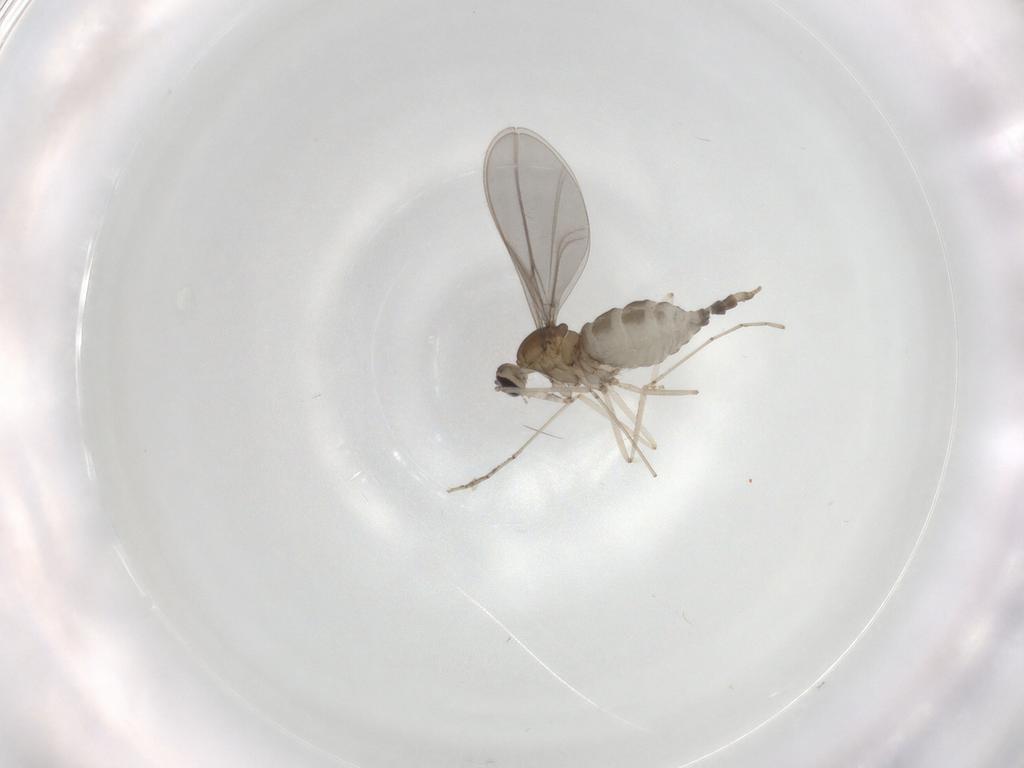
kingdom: Animalia
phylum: Arthropoda
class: Insecta
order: Diptera
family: Cecidomyiidae
